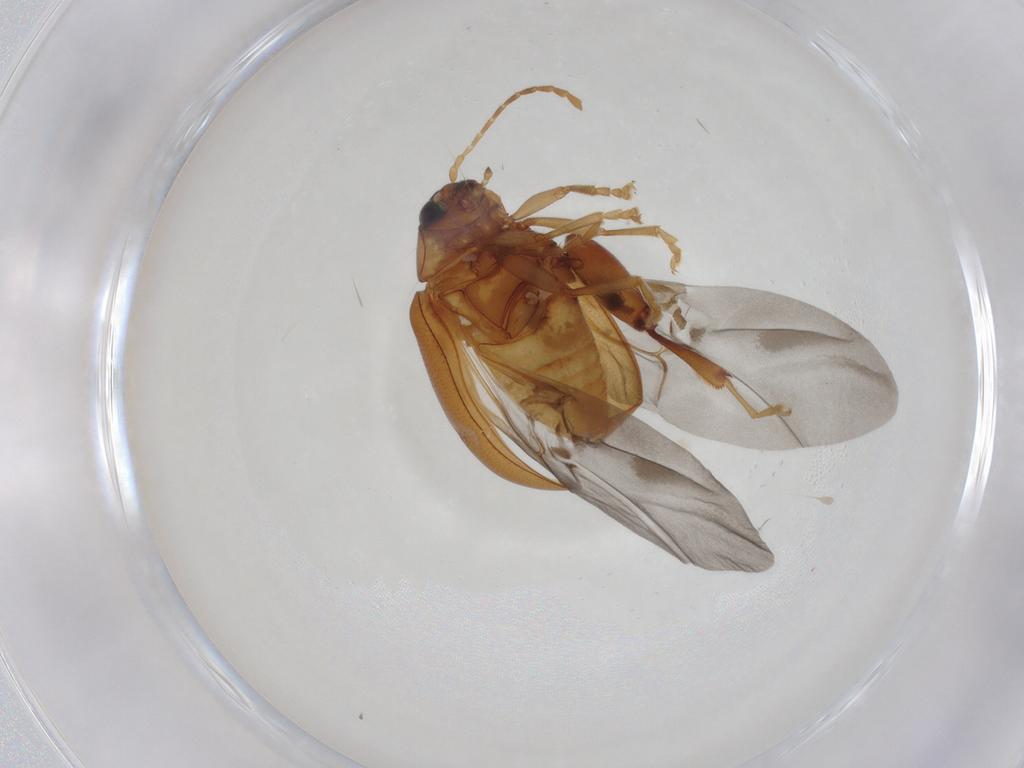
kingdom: Animalia
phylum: Arthropoda
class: Insecta
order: Coleoptera
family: Chrysomelidae
